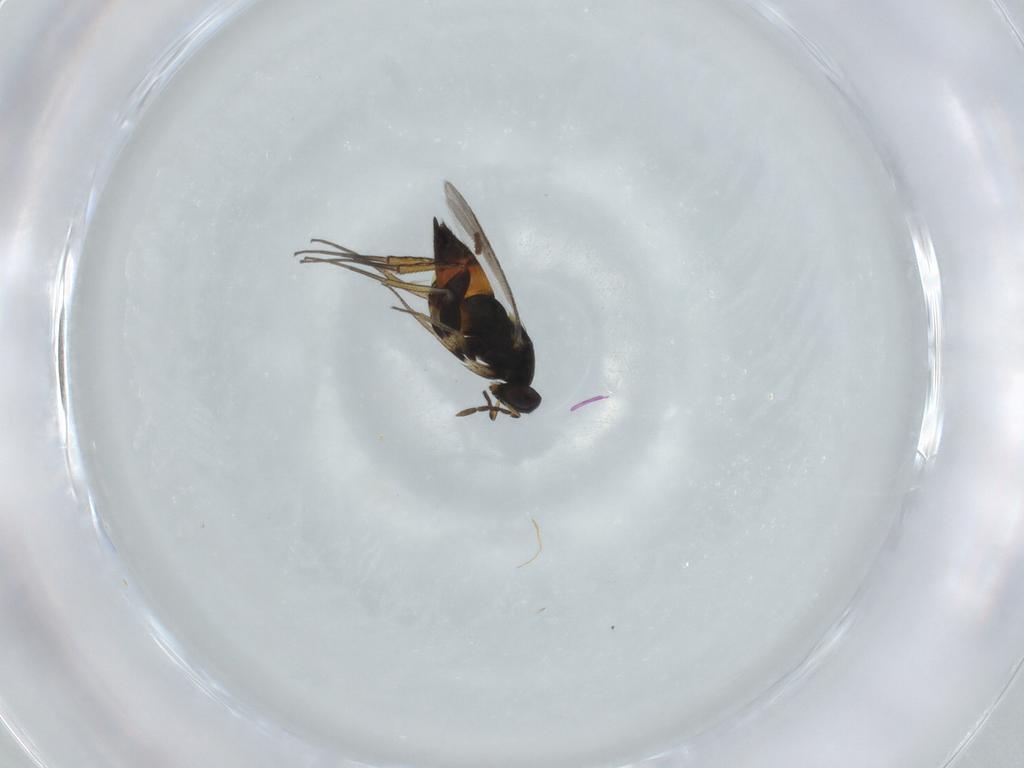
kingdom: Animalia
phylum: Arthropoda
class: Insecta
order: Hymenoptera
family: Eulophidae
